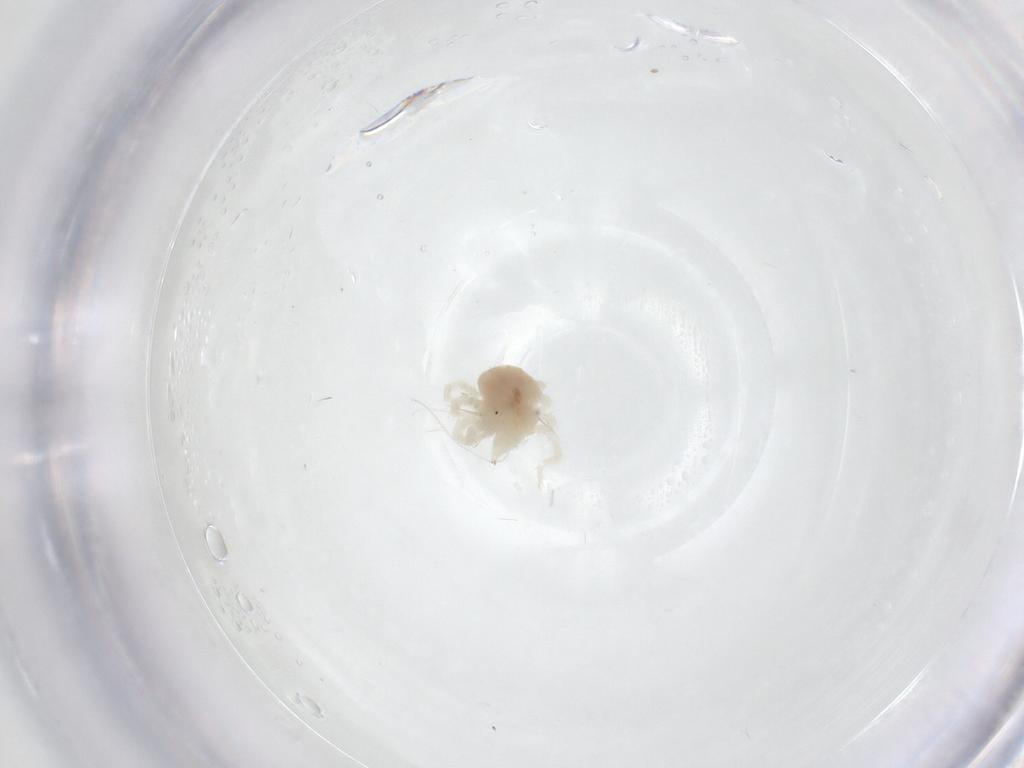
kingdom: Animalia
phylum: Arthropoda
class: Arachnida
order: Trombidiformes
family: Anystidae
